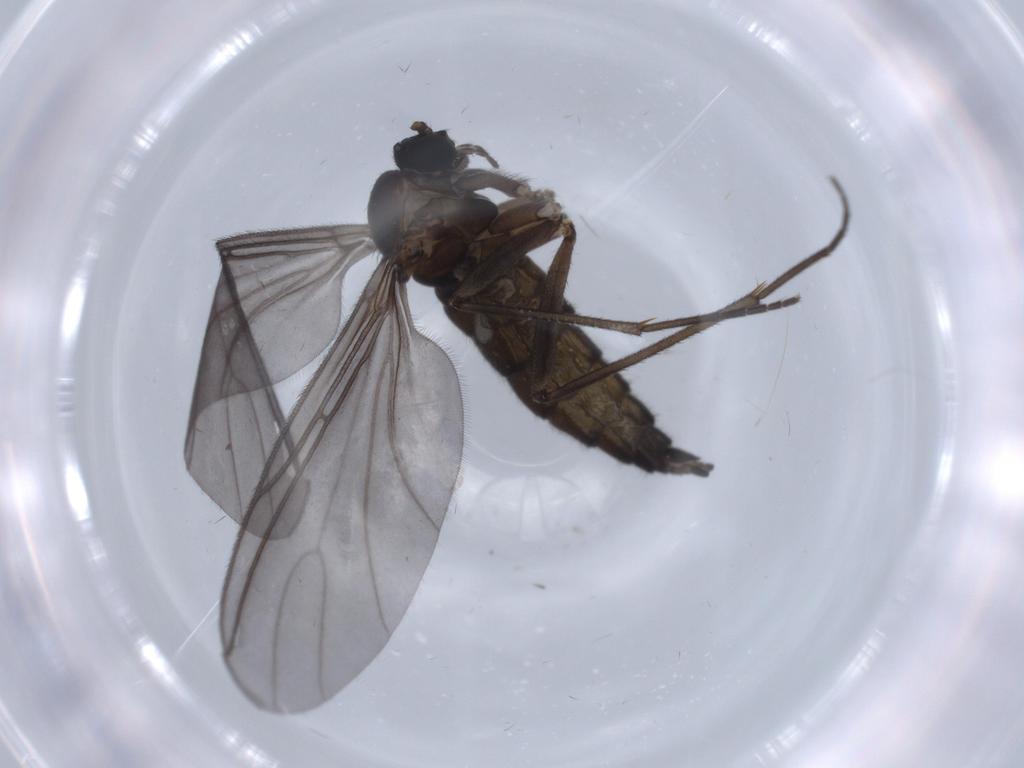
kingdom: Animalia
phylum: Arthropoda
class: Insecta
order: Diptera
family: Sciaridae
